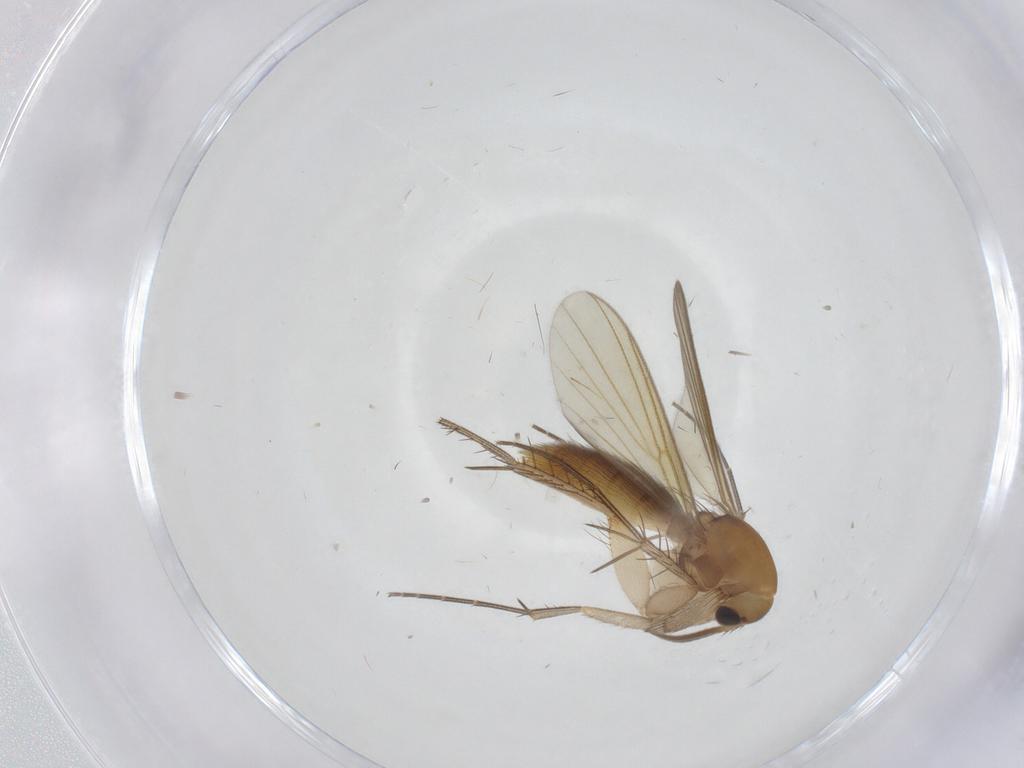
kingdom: Animalia
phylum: Arthropoda
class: Insecta
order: Diptera
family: Mycetophilidae
